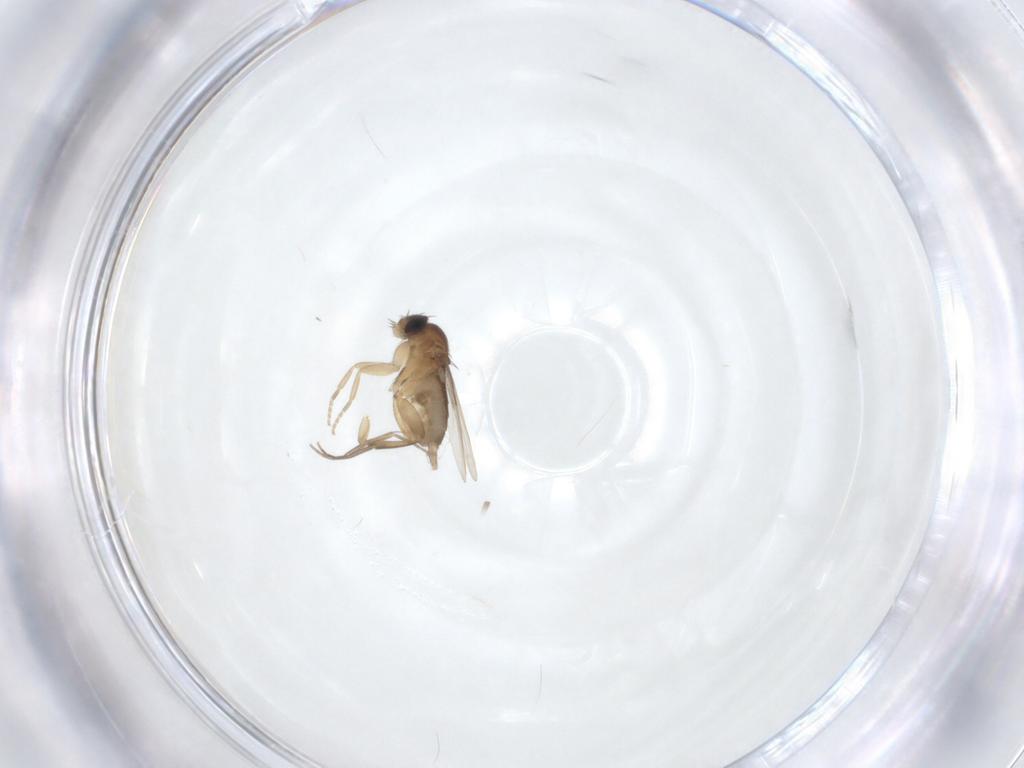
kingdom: Animalia
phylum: Arthropoda
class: Insecta
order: Diptera
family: Phoridae
